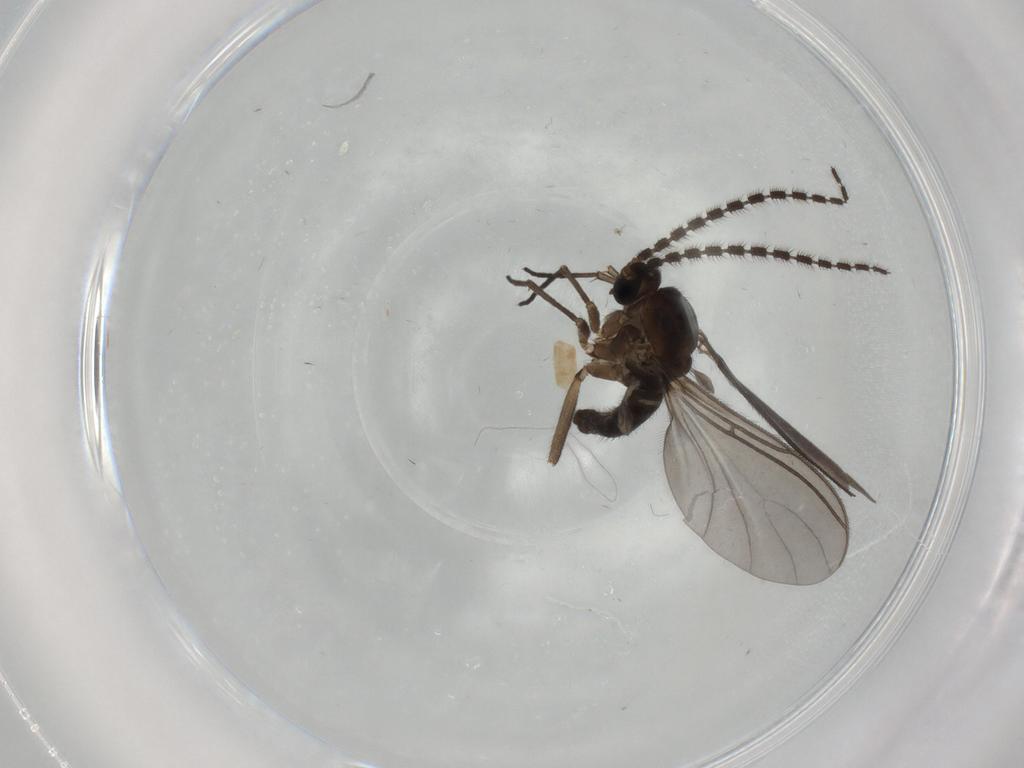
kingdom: Animalia
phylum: Arthropoda
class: Insecta
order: Diptera
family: Sciaridae
